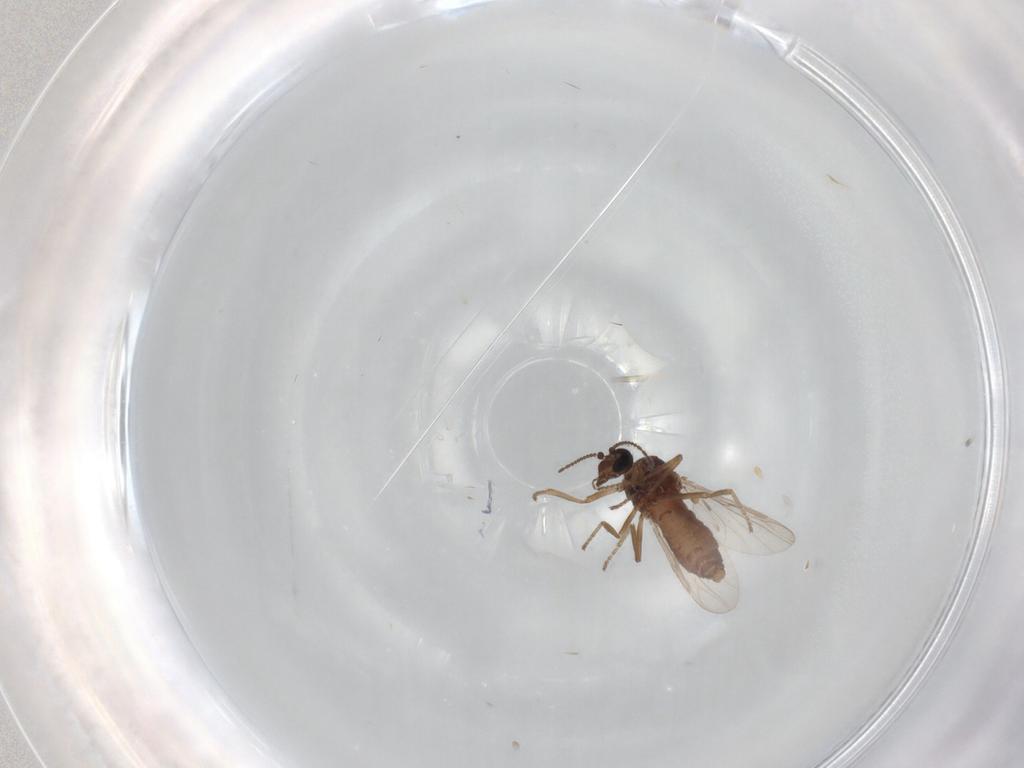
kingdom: Animalia
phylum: Arthropoda
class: Insecta
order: Diptera
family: Ceratopogonidae
